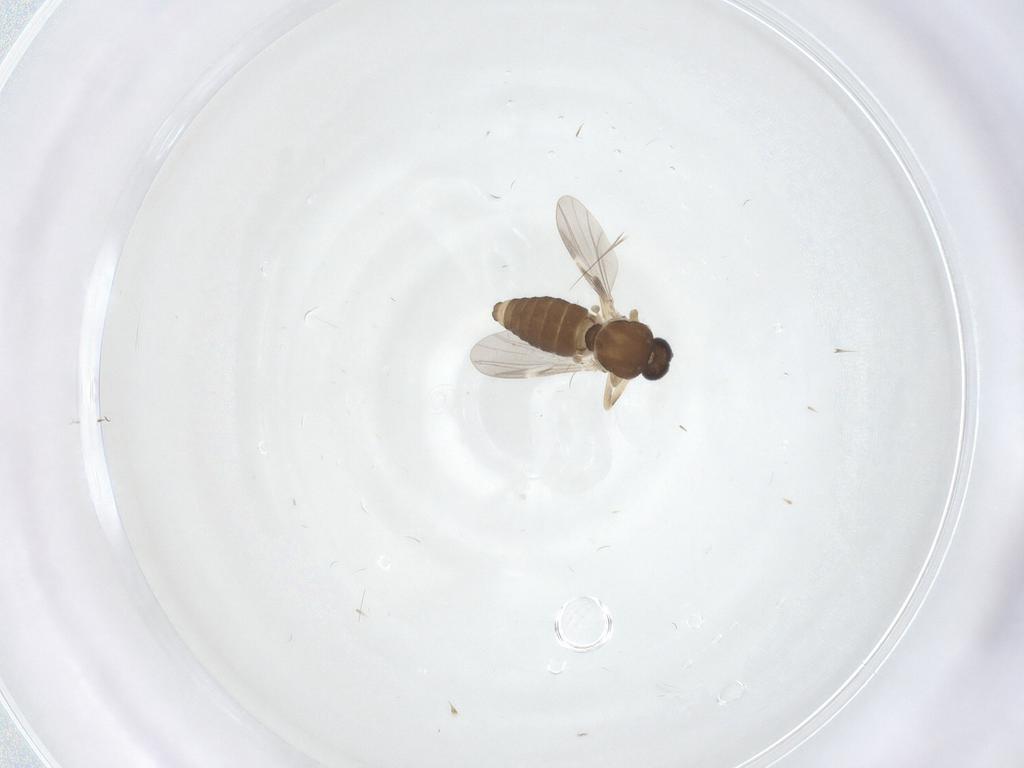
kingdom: Animalia
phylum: Arthropoda
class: Insecta
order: Diptera
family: Ceratopogonidae
